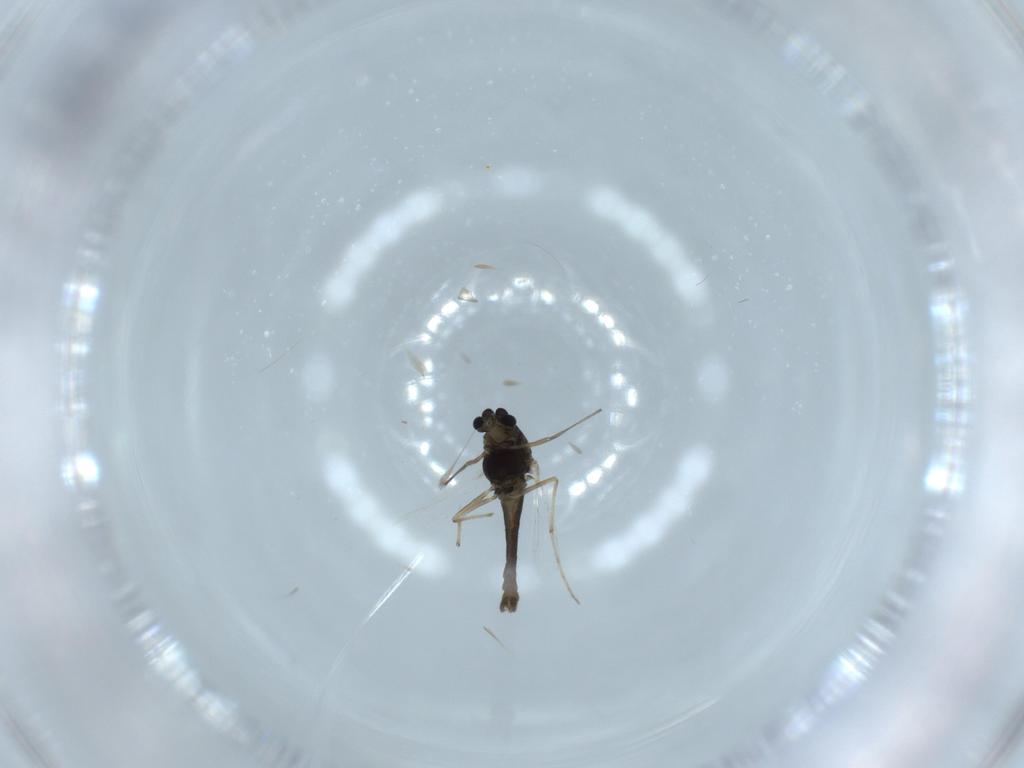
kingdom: Animalia
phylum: Arthropoda
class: Insecta
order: Diptera
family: Chironomidae
